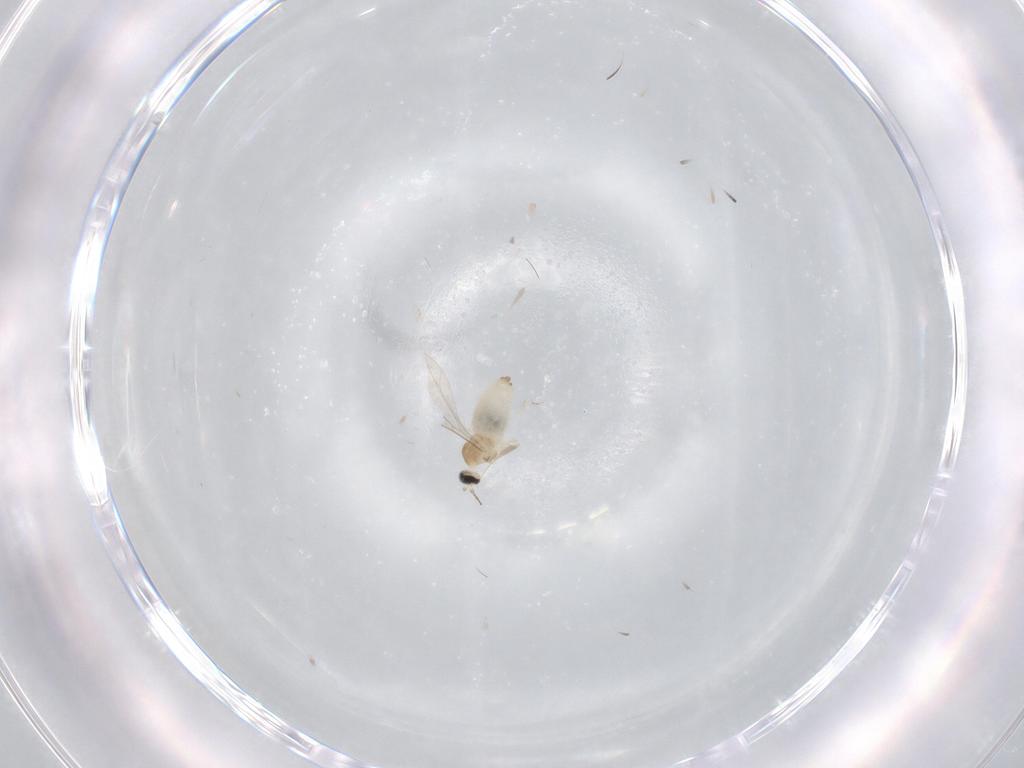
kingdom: Animalia
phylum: Arthropoda
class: Insecta
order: Diptera
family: Cecidomyiidae
